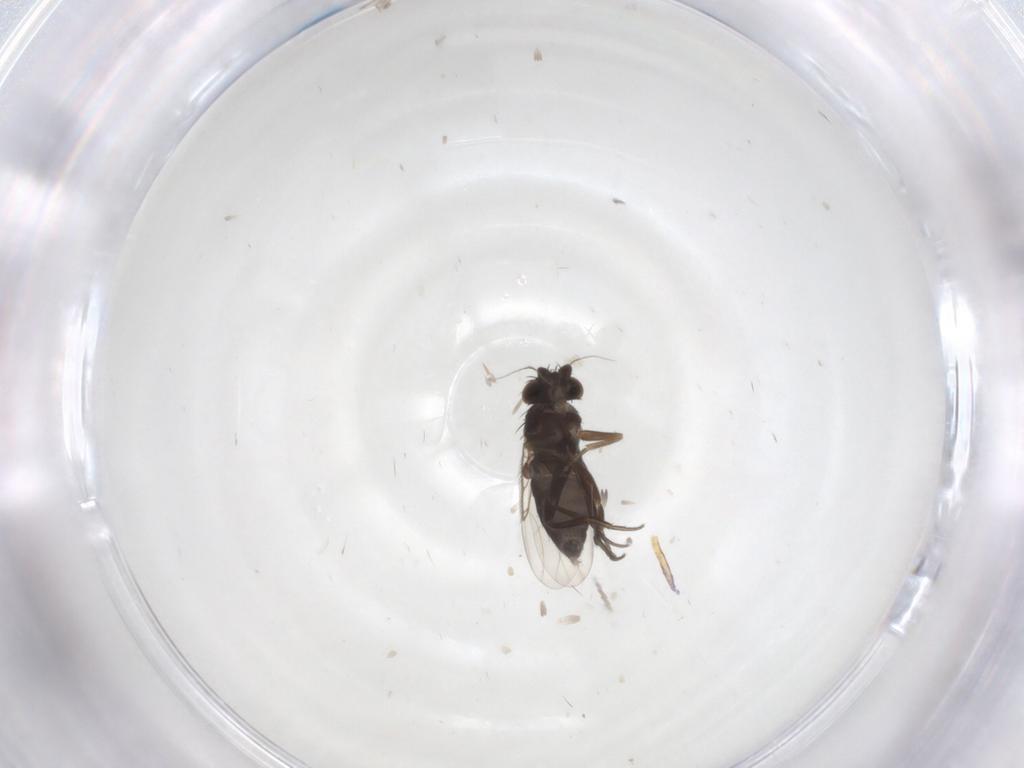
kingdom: Animalia
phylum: Arthropoda
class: Insecta
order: Diptera
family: Phoridae
